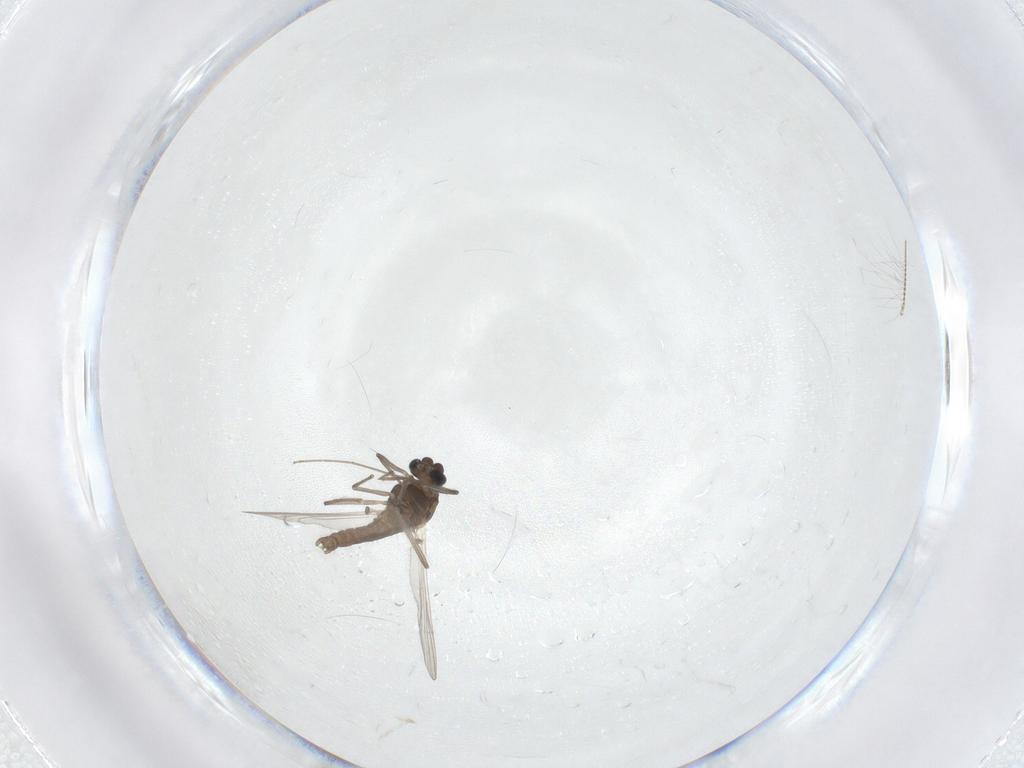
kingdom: Animalia
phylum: Arthropoda
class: Insecta
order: Diptera
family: Chironomidae
